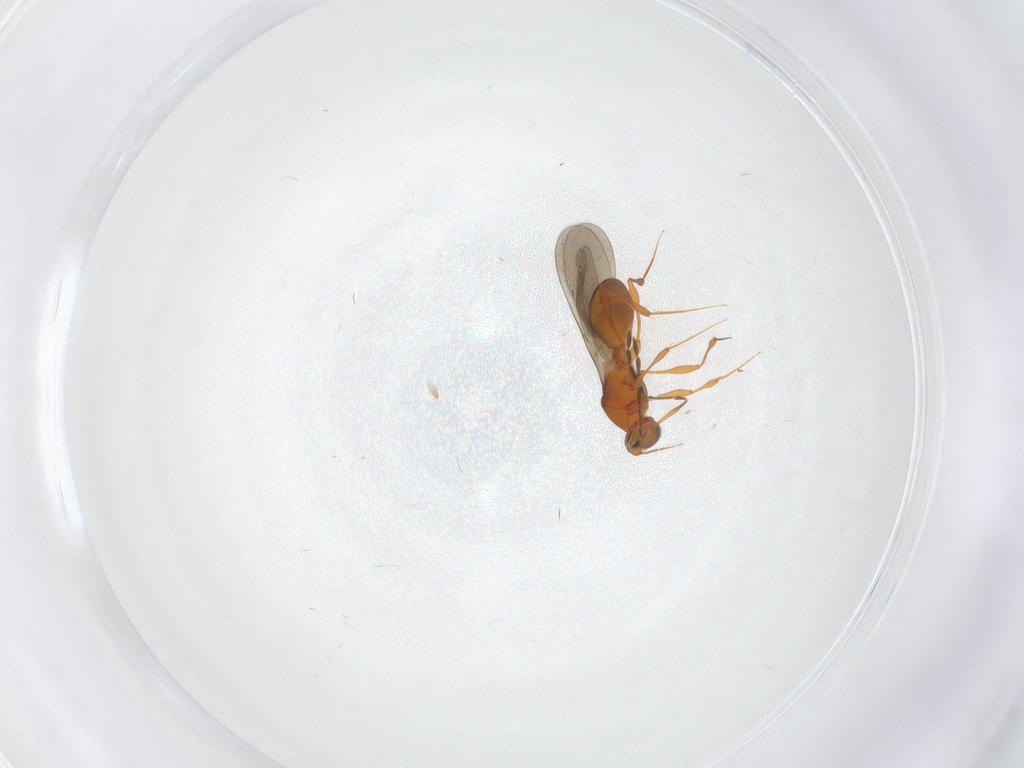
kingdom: Animalia
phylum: Arthropoda
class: Insecta
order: Hymenoptera
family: Platygastridae
